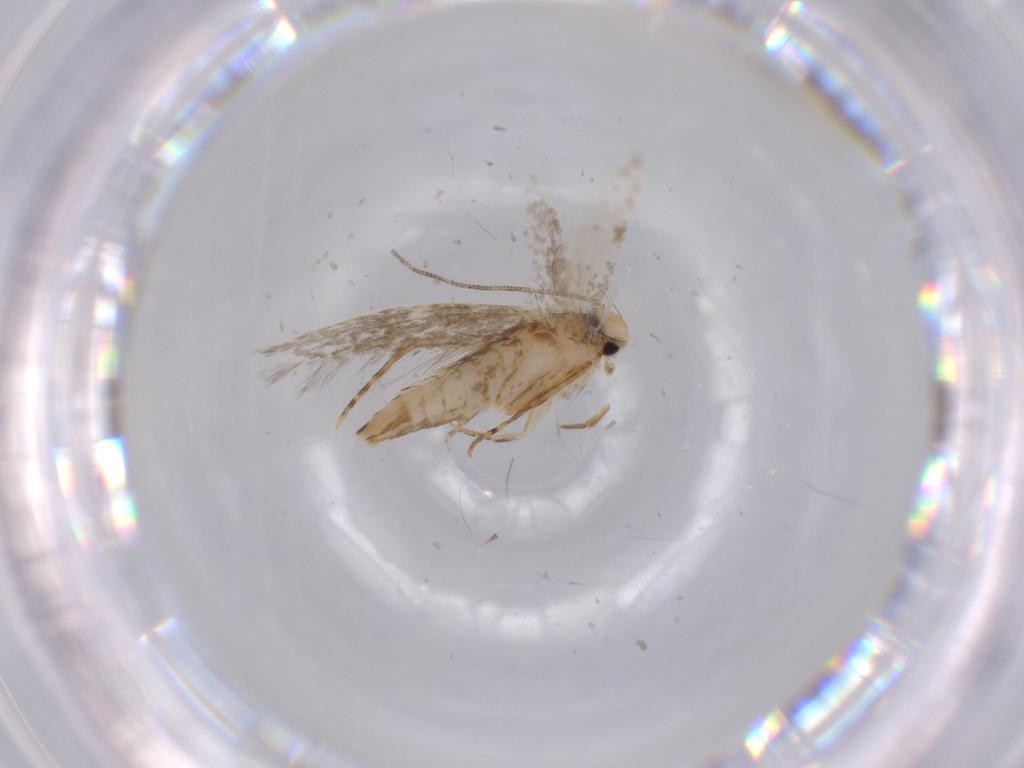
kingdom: Animalia
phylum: Arthropoda
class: Insecta
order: Lepidoptera
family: Tineidae
